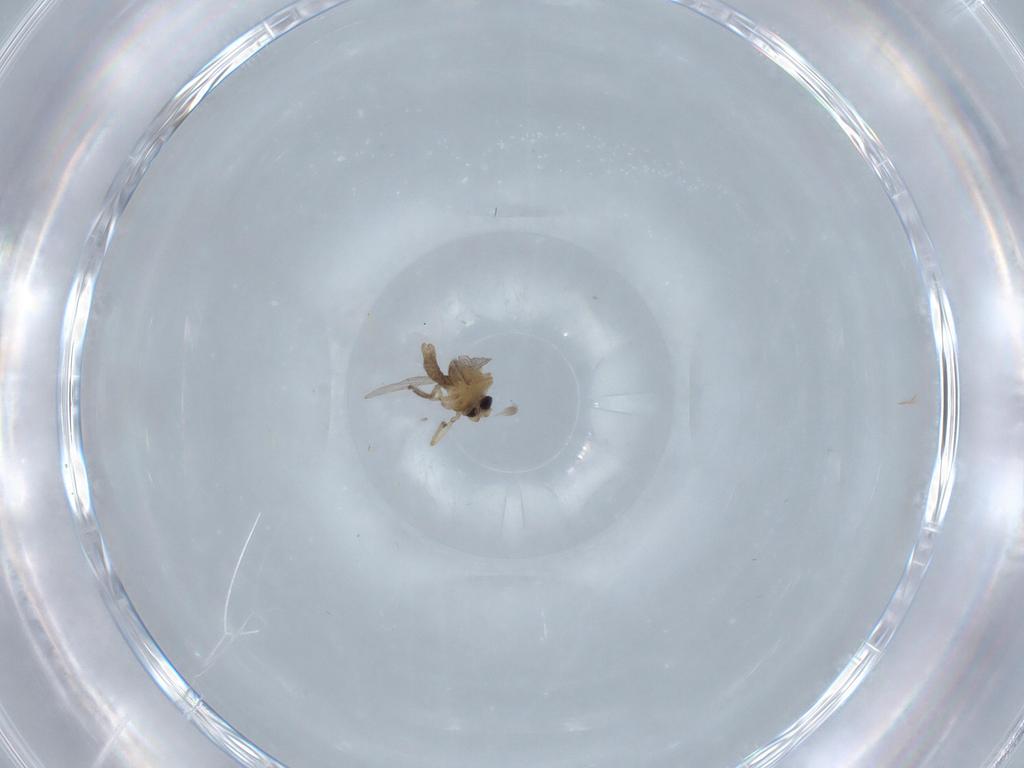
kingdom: Animalia
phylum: Arthropoda
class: Insecta
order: Diptera
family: Ceratopogonidae
